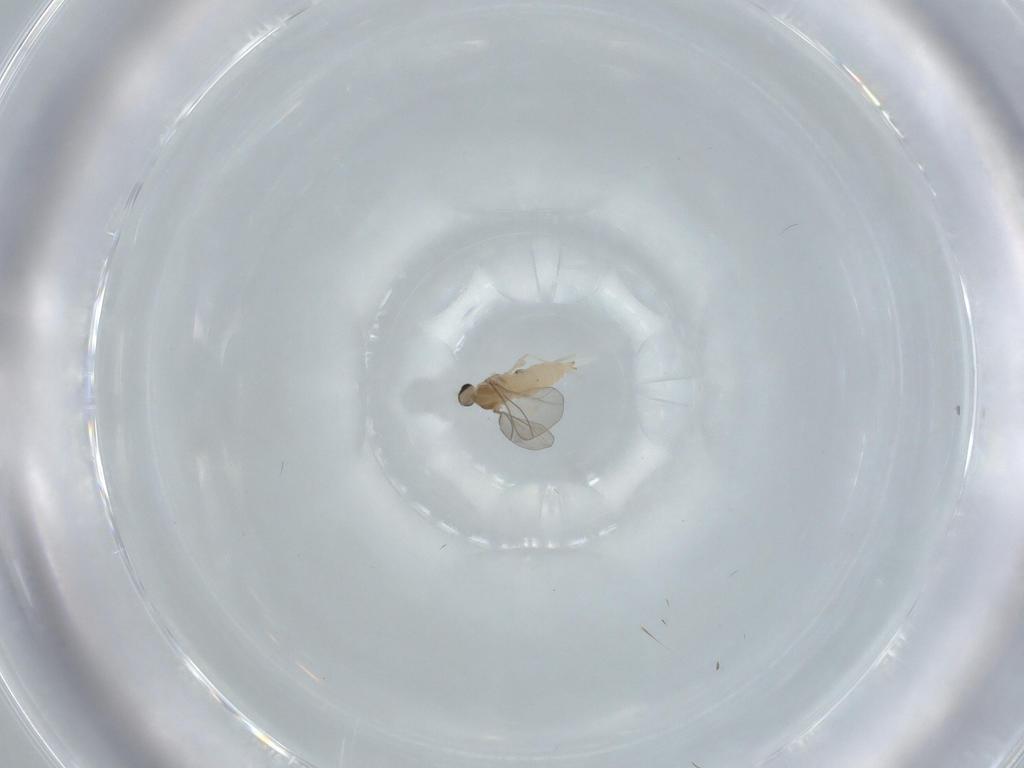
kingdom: Animalia
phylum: Arthropoda
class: Insecta
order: Diptera
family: Cecidomyiidae
